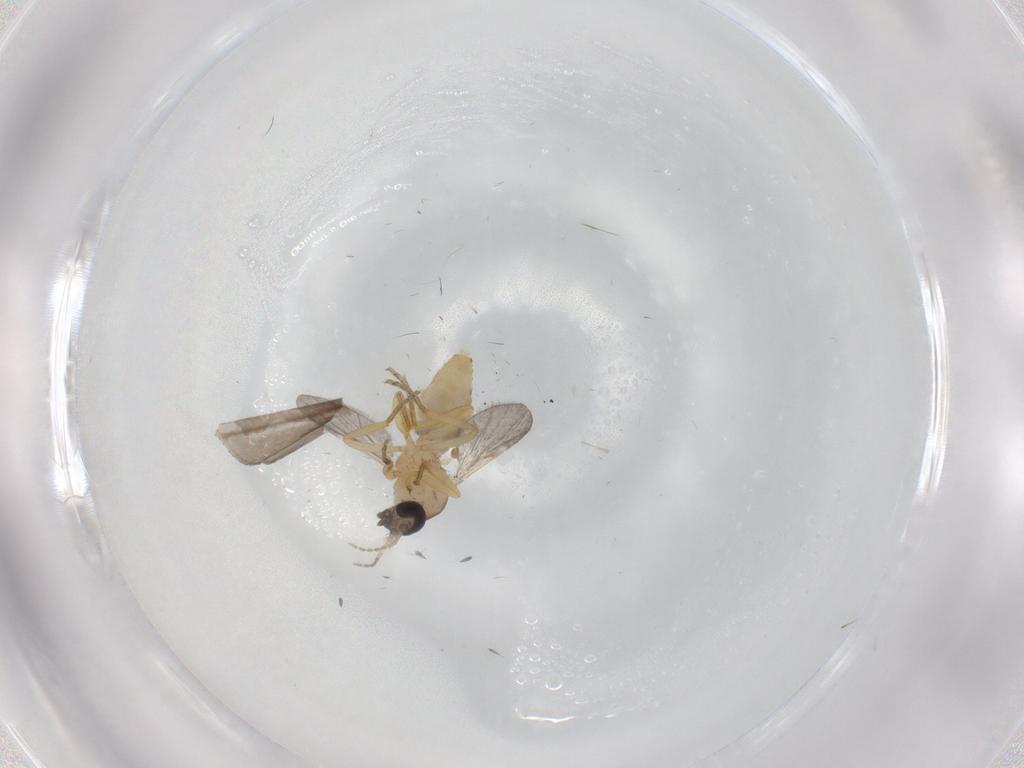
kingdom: Animalia
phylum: Arthropoda
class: Insecta
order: Diptera
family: Ceratopogonidae
